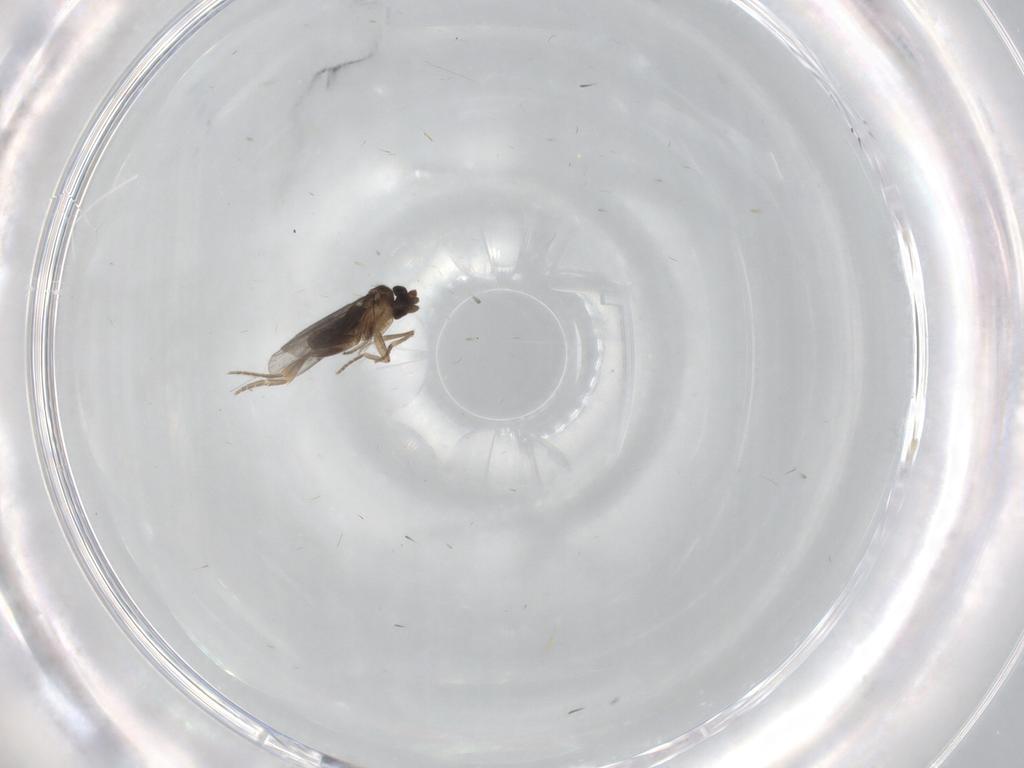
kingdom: Animalia
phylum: Arthropoda
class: Insecta
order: Diptera
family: Chironomidae
